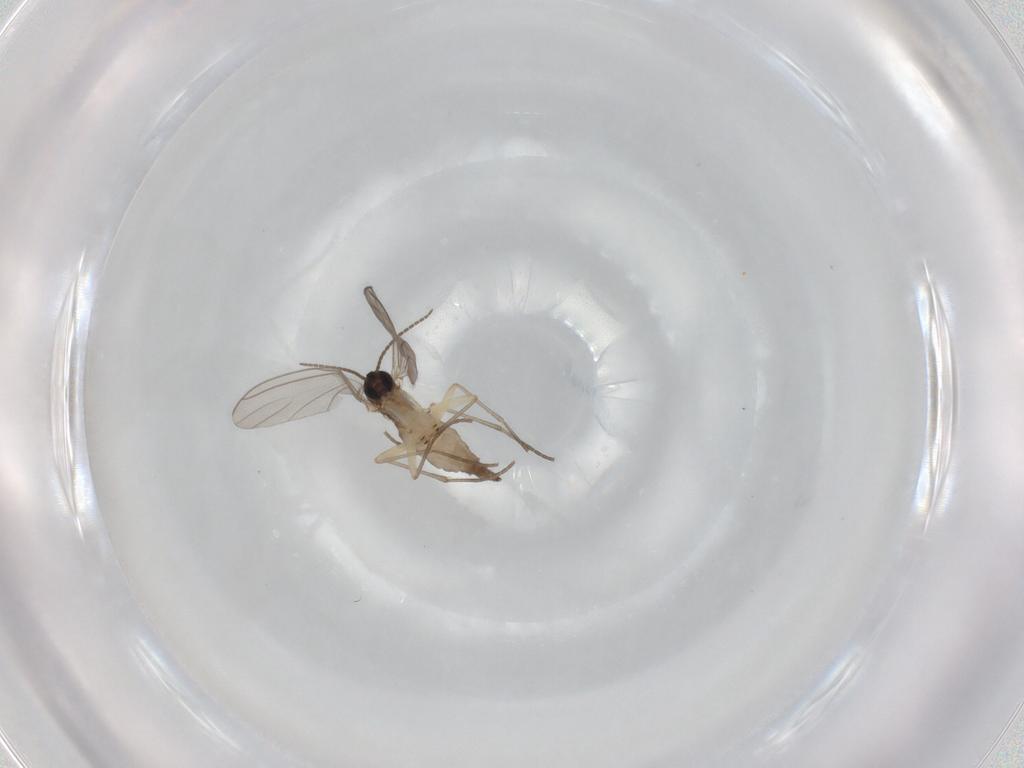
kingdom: Animalia
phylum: Arthropoda
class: Insecta
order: Diptera
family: Sciaridae
